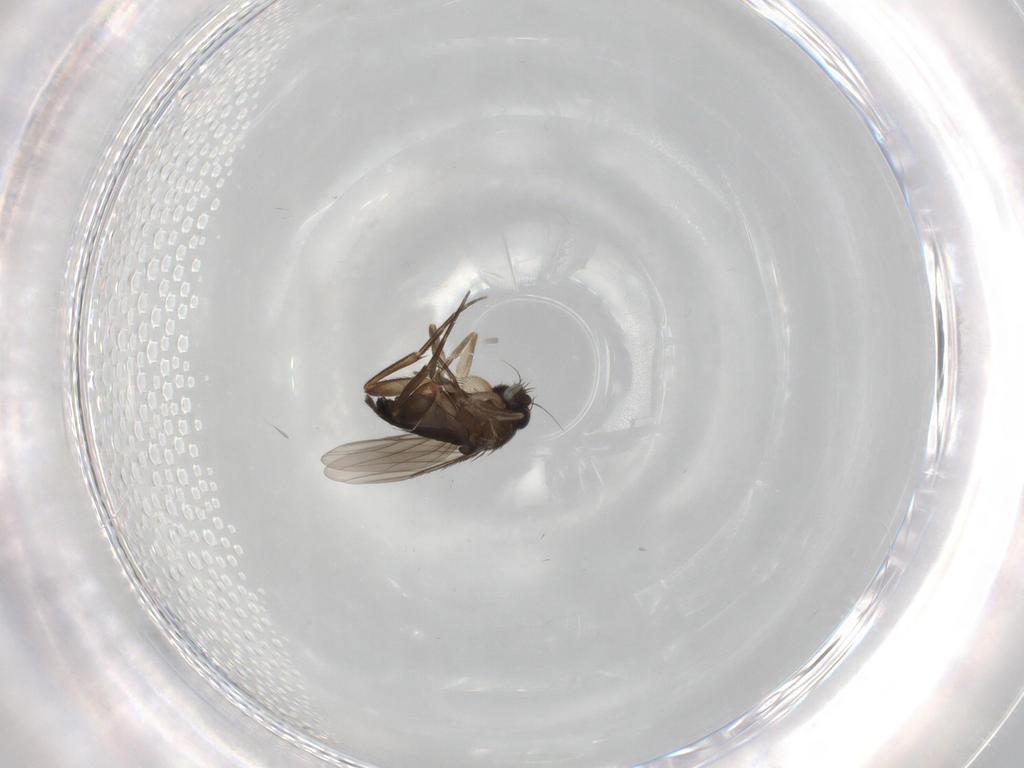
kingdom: Animalia
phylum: Arthropoda
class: Insecta
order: Diptera
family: Phoridae
